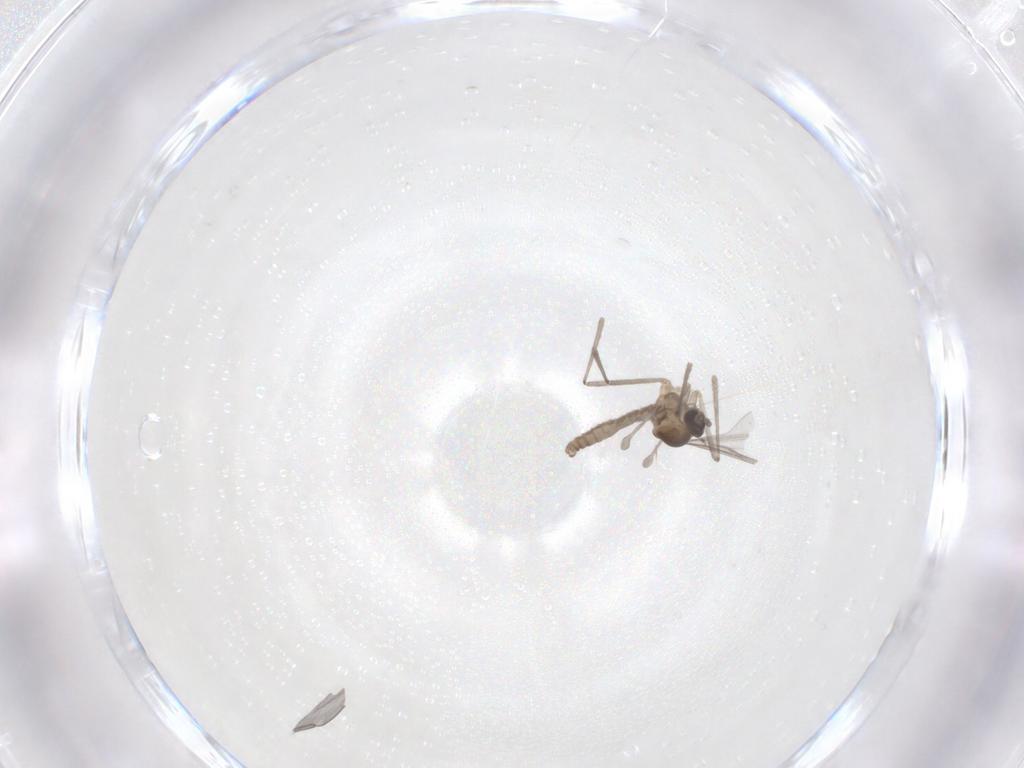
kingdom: Animalia
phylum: Arthropoda
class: Insecta
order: Diptera
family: Cecidomyiidae
